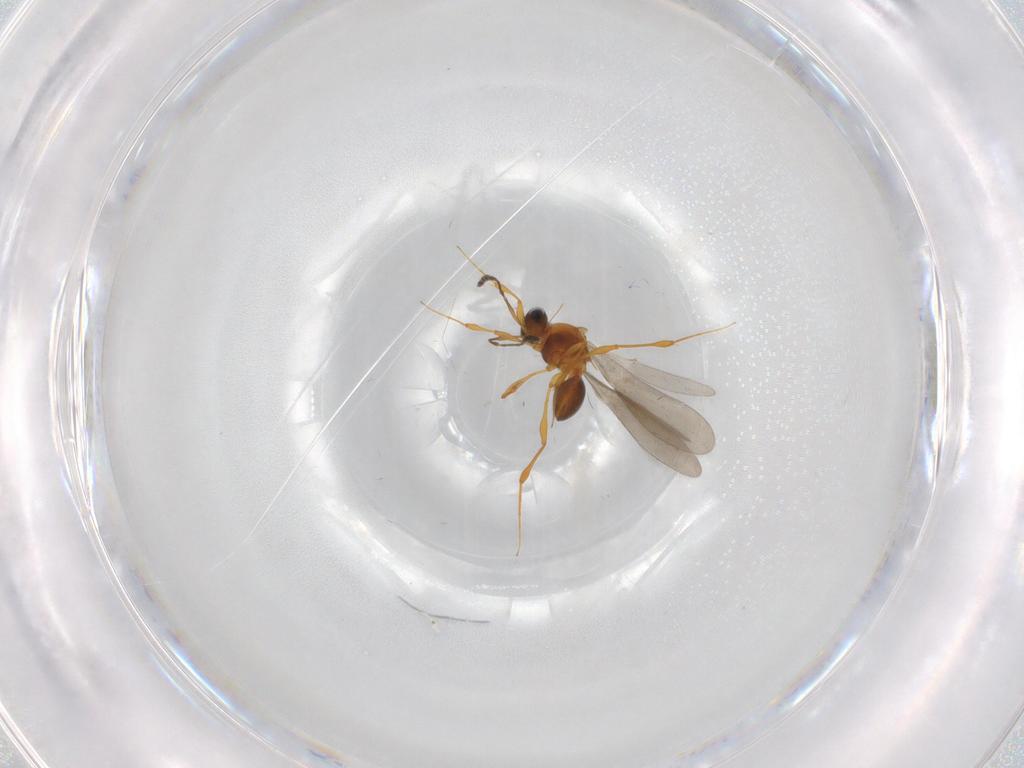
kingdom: Animalia
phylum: Arthropoda
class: Insecta
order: Hymenoptera
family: Platygastridae
